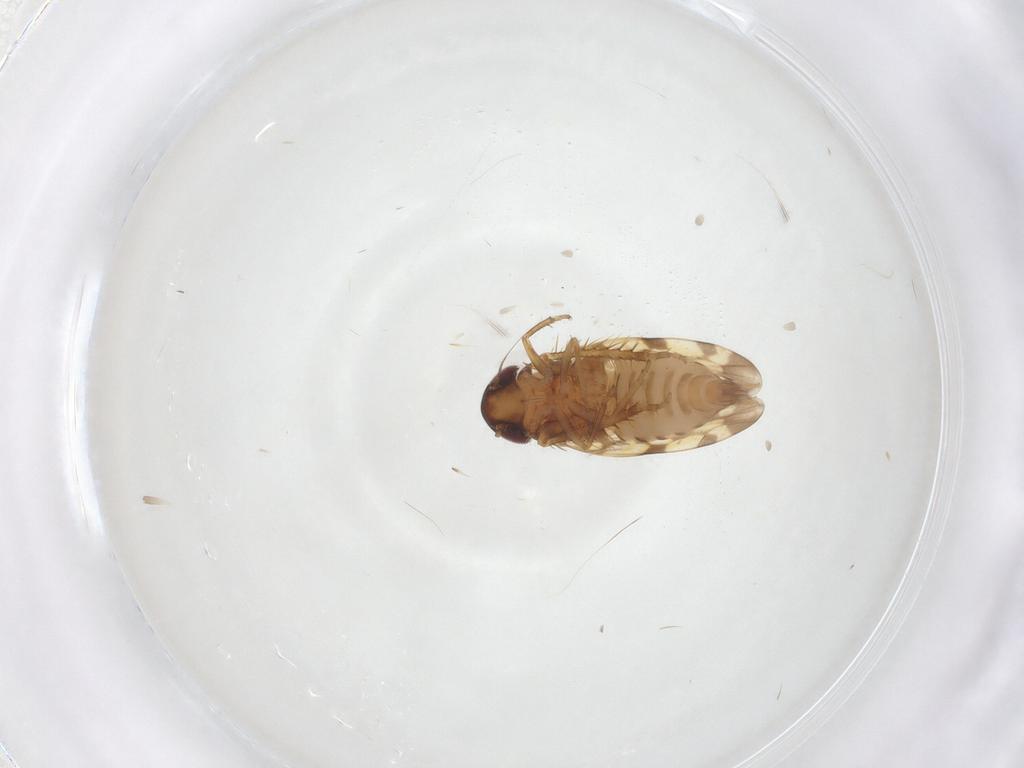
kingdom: Animalia
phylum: Arthropoda
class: Insecta
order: Hemiptera
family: Cicadellidae
